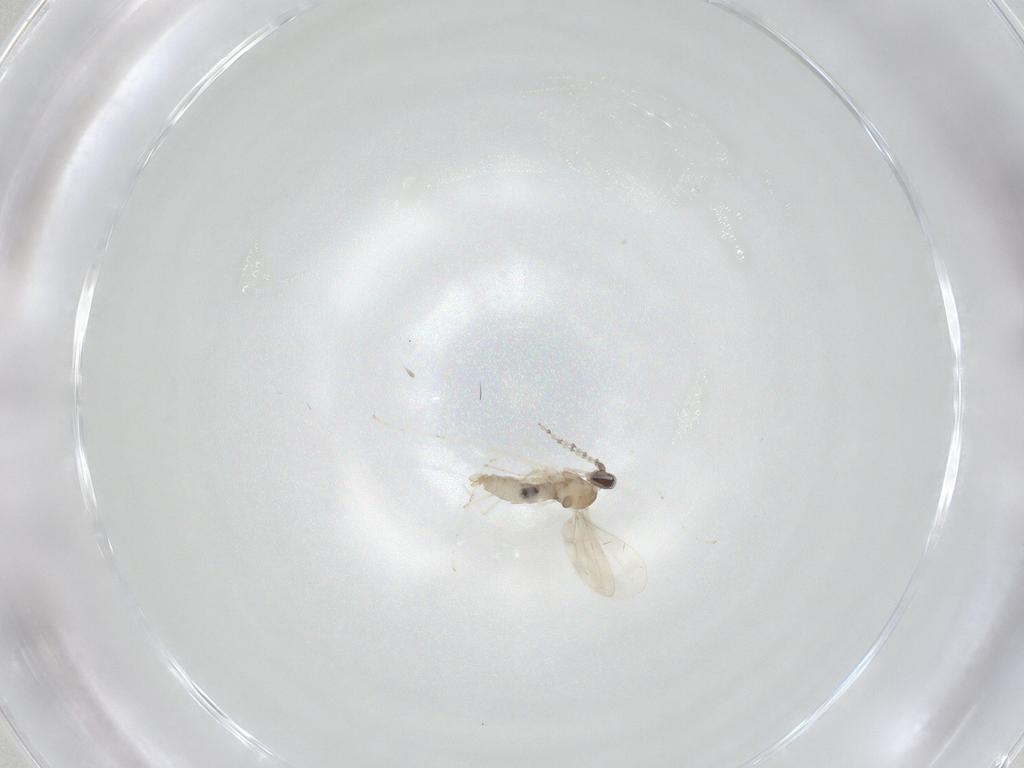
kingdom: Animalia
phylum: Arthropoda
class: Insecta
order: Diptera
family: Cecidomyiidae
